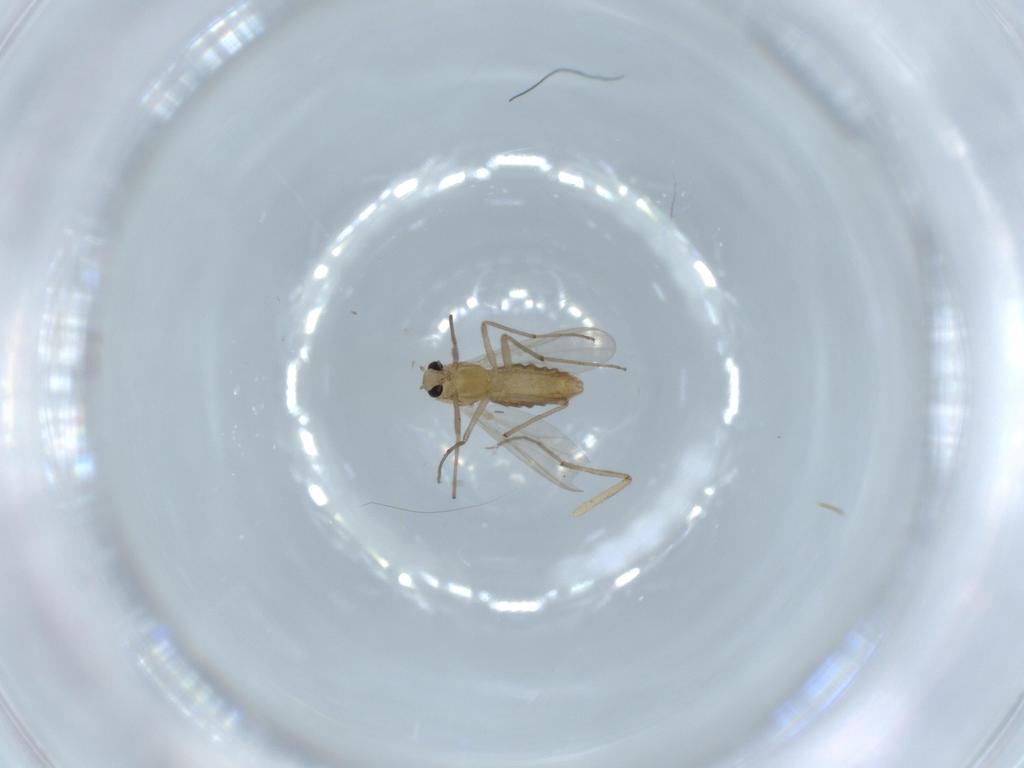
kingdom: Animalia
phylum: Arthropoda
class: Insecta
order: Diptera
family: Chironomidae
